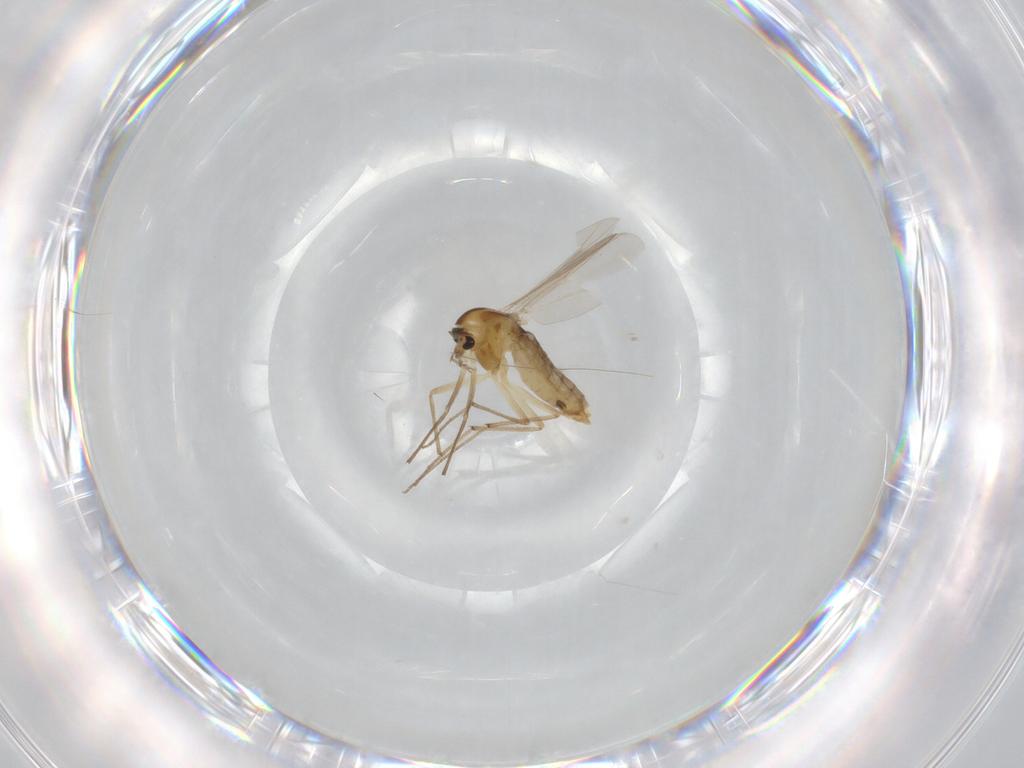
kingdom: Animalia
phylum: Arthropoda
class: Insecta
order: Diptera
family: Chironomidae
